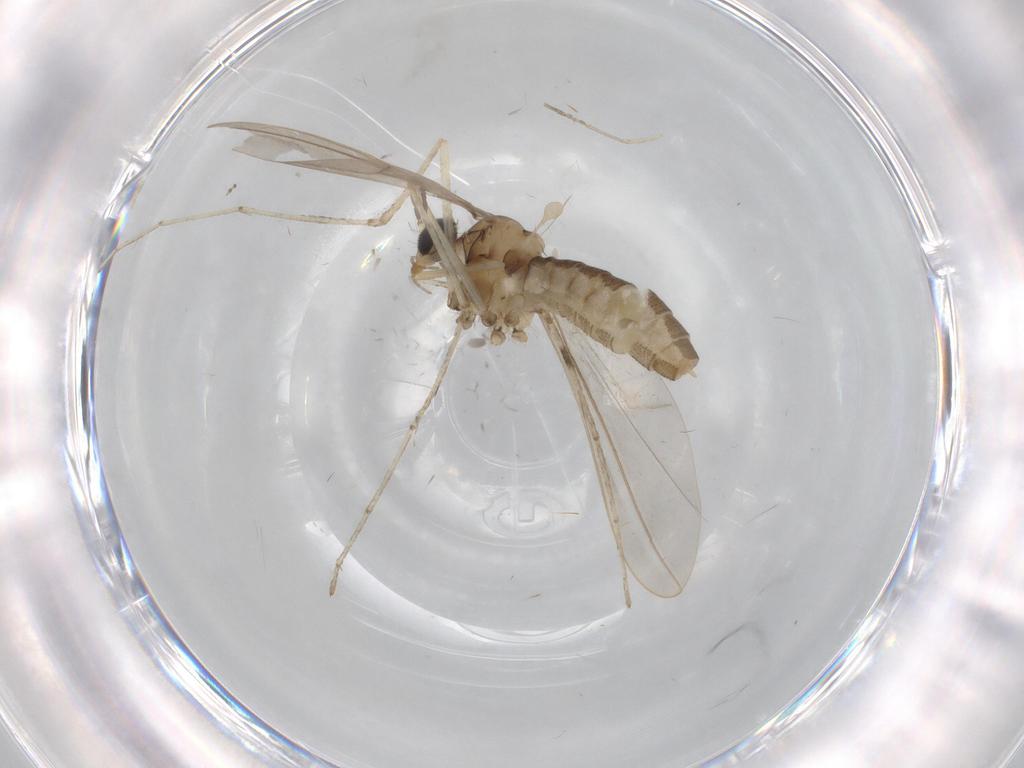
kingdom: Animalia
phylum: Arthropoda
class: Insecta
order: Diptera
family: Cecidomyiidae
